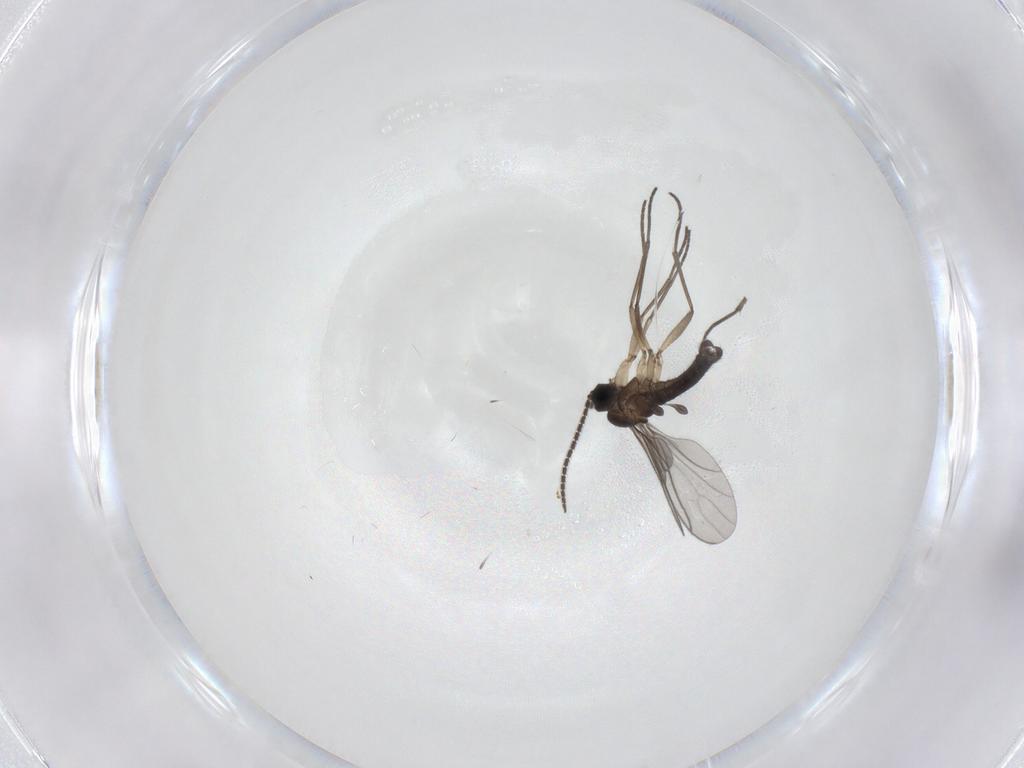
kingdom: Animalia
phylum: Arthropoda
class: Insecta
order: Diptera
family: Sciaridae
